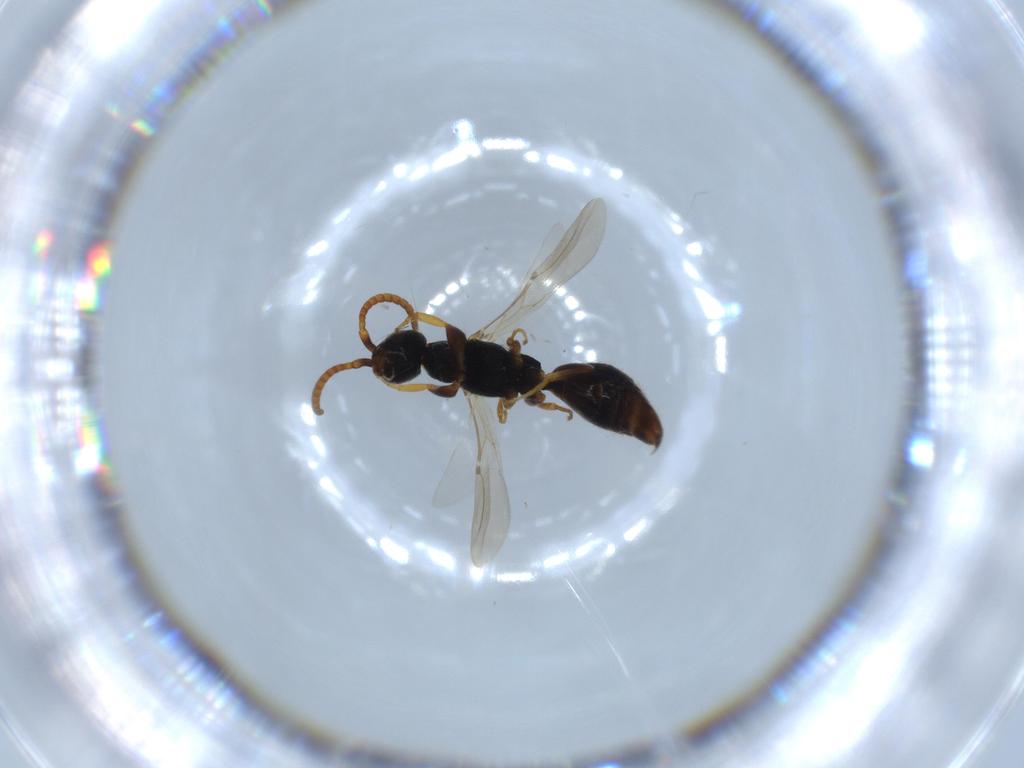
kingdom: Animalia
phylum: Arthropoda
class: Insecta
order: Hymenoptera
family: Bethylidae
